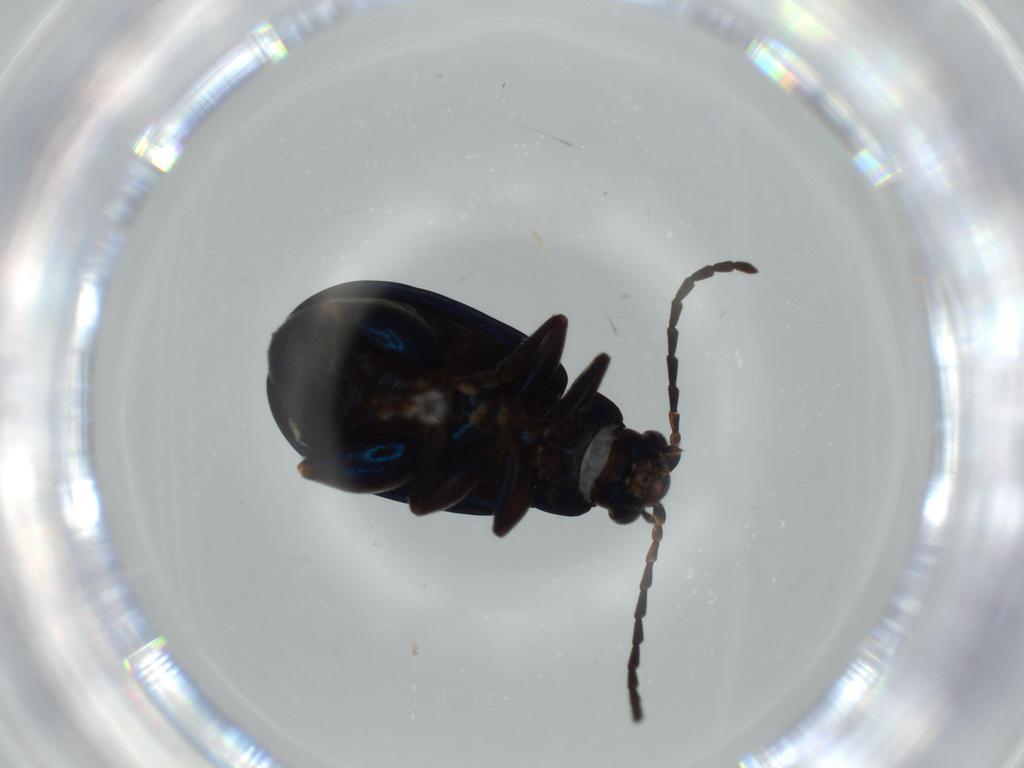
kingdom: Animalia
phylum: Arthropoda
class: Insecta
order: Coleoptera
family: Chrysomelidae
